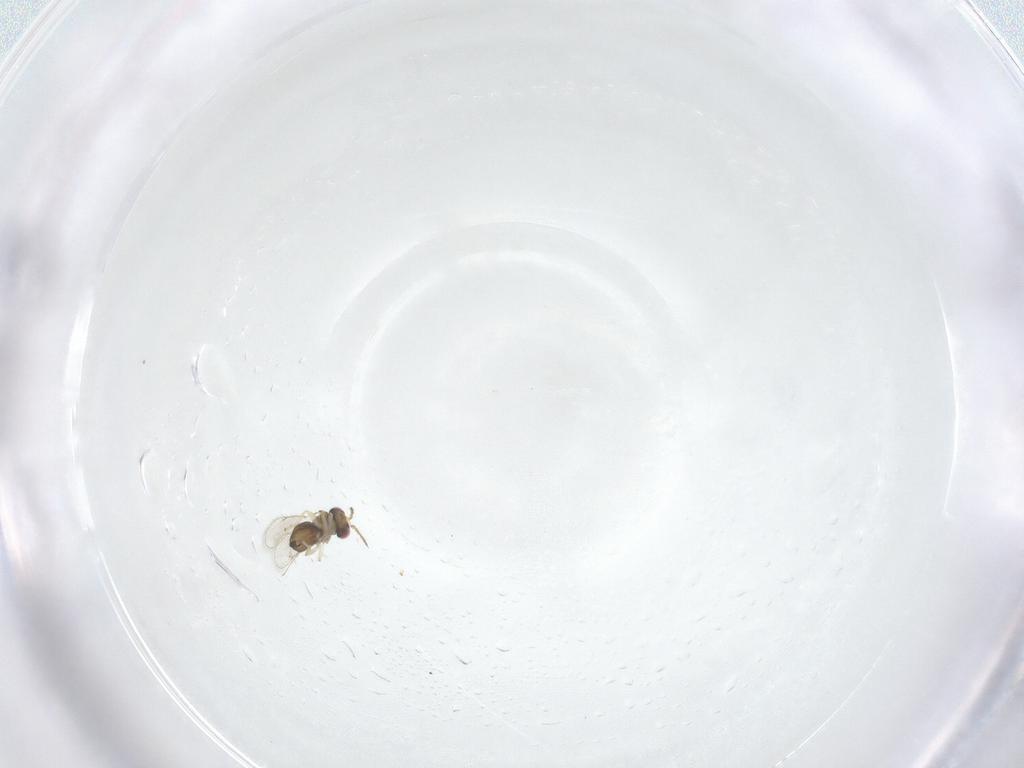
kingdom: Animalia
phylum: Arthropoda
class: Insecta
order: Hymenoptera
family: Eulophidae
